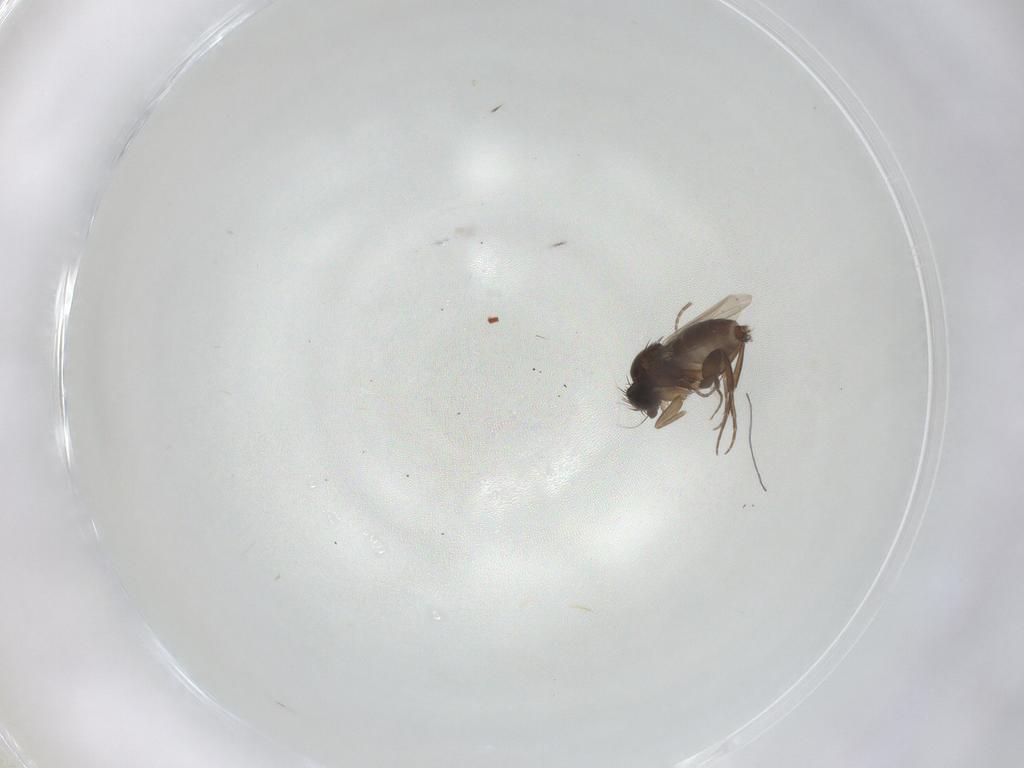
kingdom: Animalia
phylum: Arthropoda
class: Insecta
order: Diptera
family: Phoridae
